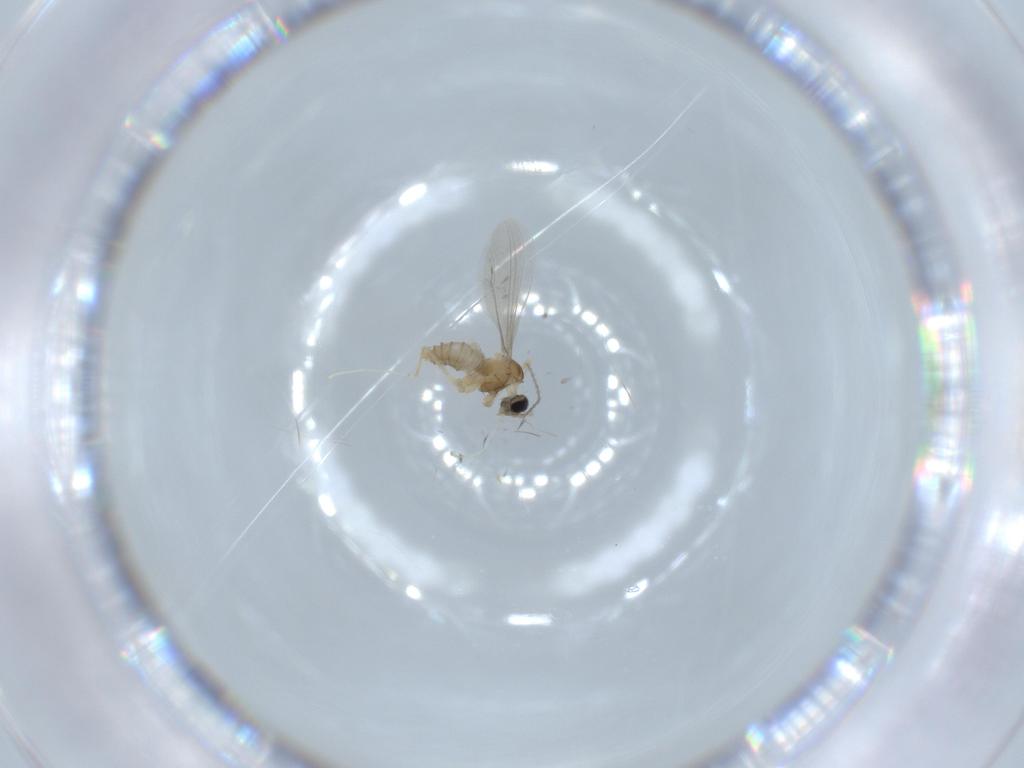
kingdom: Animalia
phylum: Arthropoda
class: Insecta
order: Diptera
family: Cecidomyiidae
